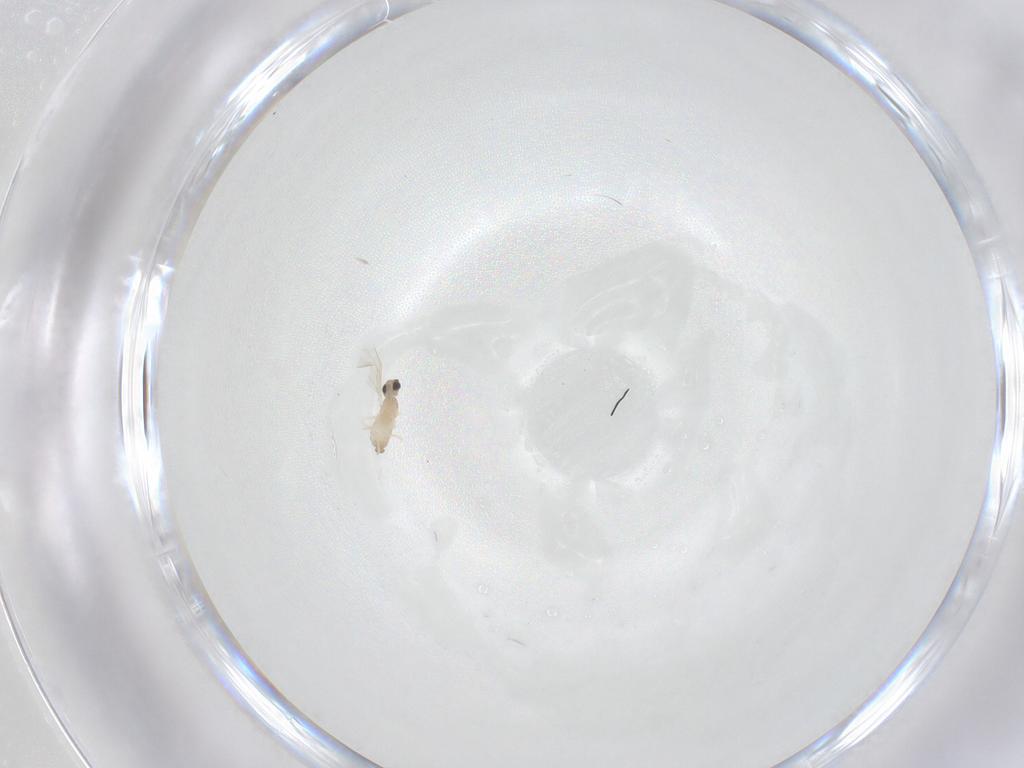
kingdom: Animalia
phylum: Arthropoda
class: Insecta
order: Diptera
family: Cecidomyiidae
